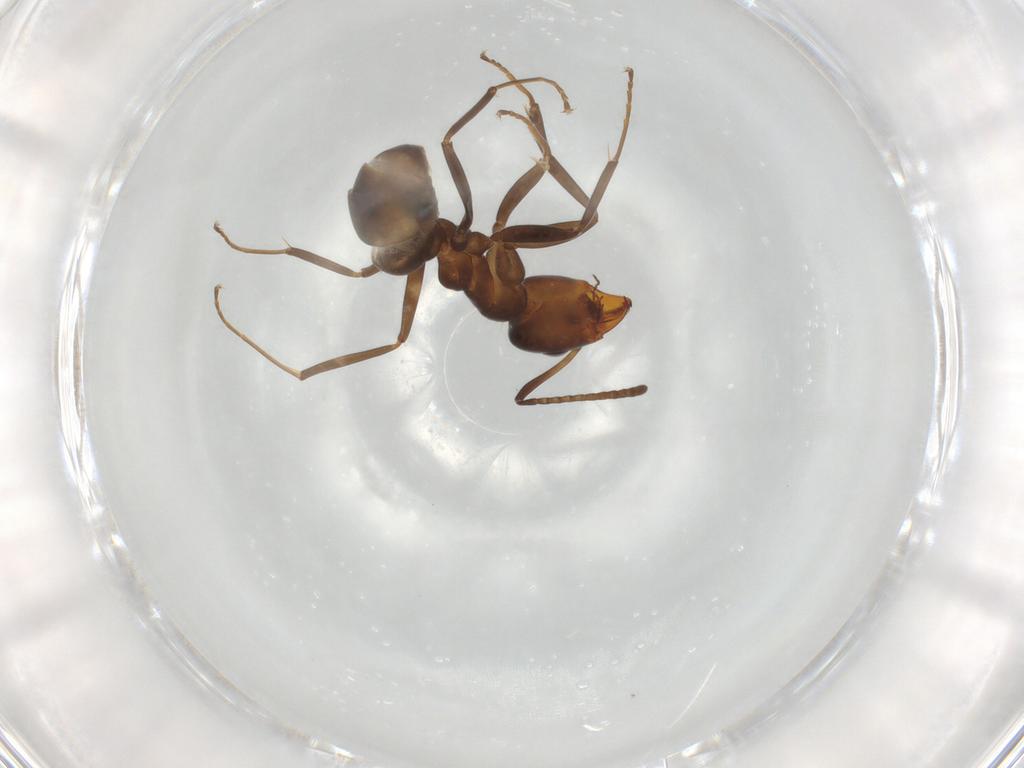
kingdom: Animalia
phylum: Arthropoda
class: Insecta
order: Hymenoptera
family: Formicidae
